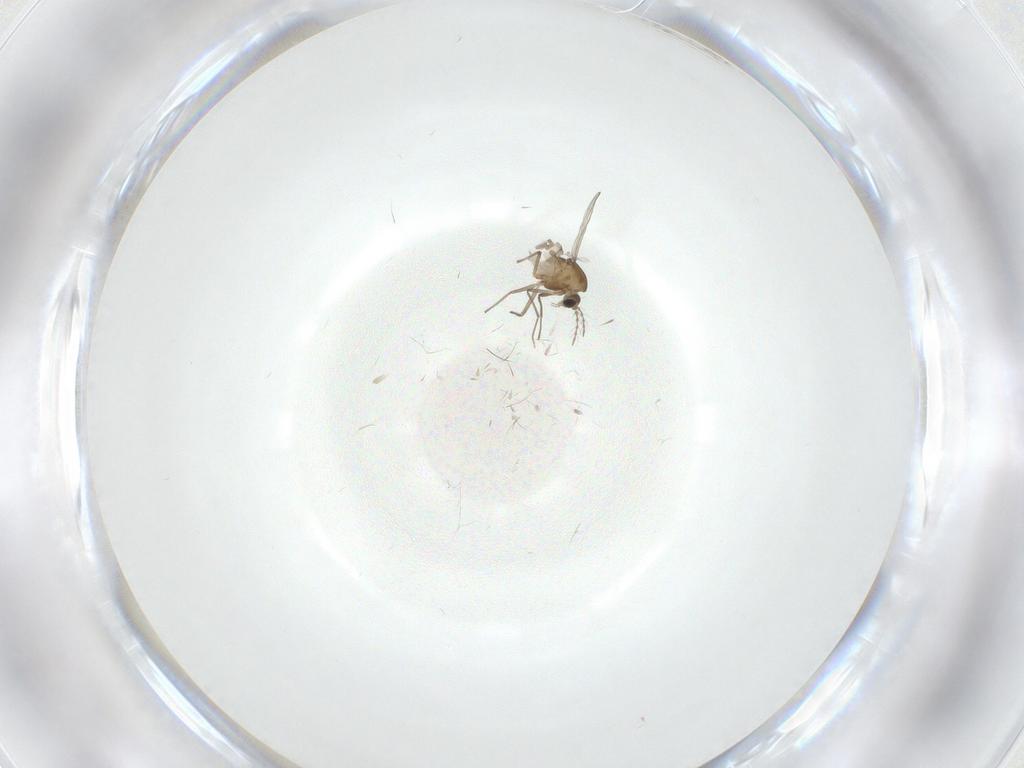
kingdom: Animalia
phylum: Arthropoda
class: Insecta
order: Diptera
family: Chironomidae
